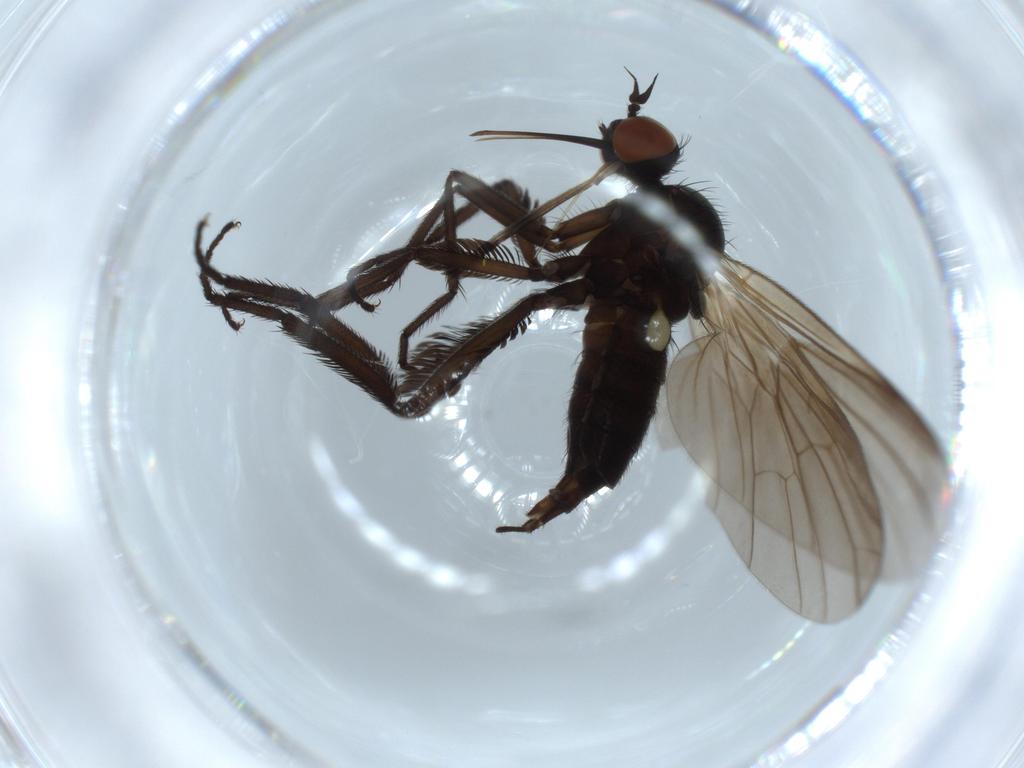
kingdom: Animalia
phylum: Arthropoda
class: Insecta
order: Diptera
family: Empididae
